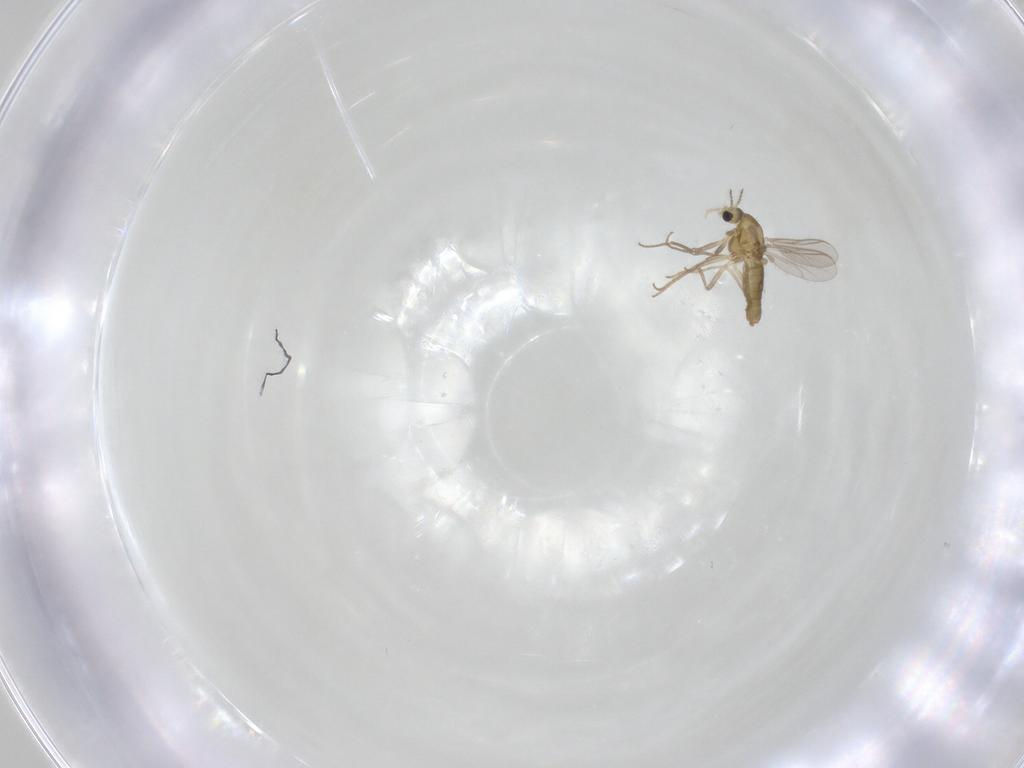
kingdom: Animalia
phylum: Arthropoda
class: Insecta
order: Diptera
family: Chironomidae
